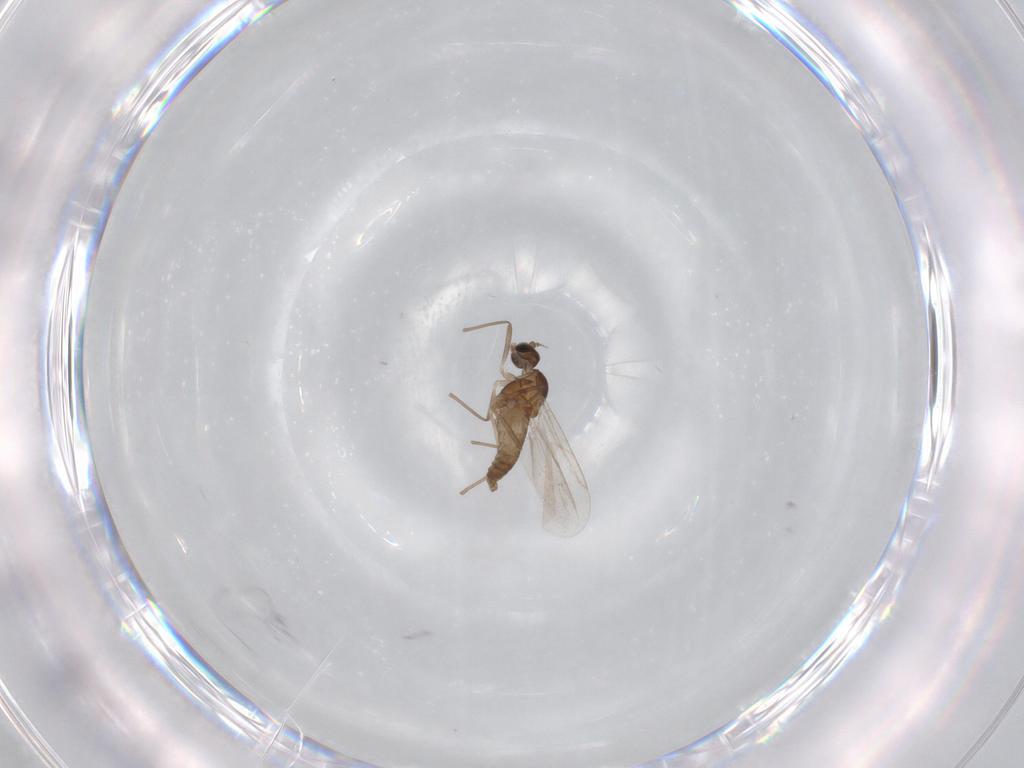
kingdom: Animalia
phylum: Arthropoda
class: Insecta
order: Diptera
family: Cecidomyiidae
